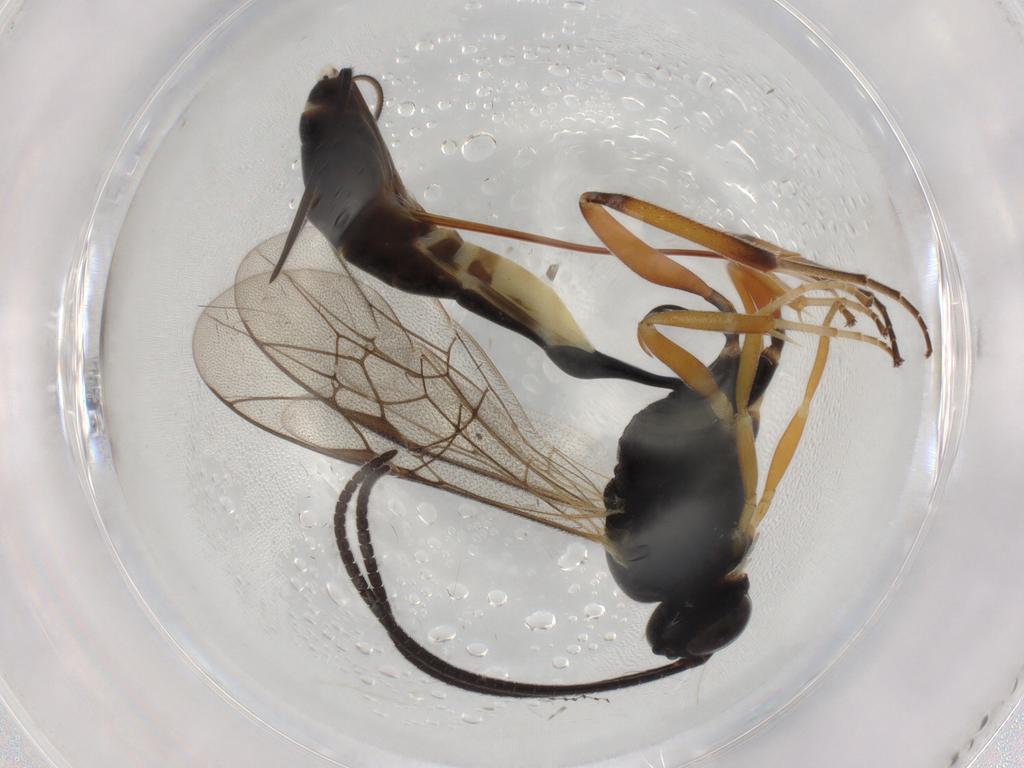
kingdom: Animalia
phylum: Arthropoda
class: Insecta
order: Hymenoptera
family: Ichneumonidae
